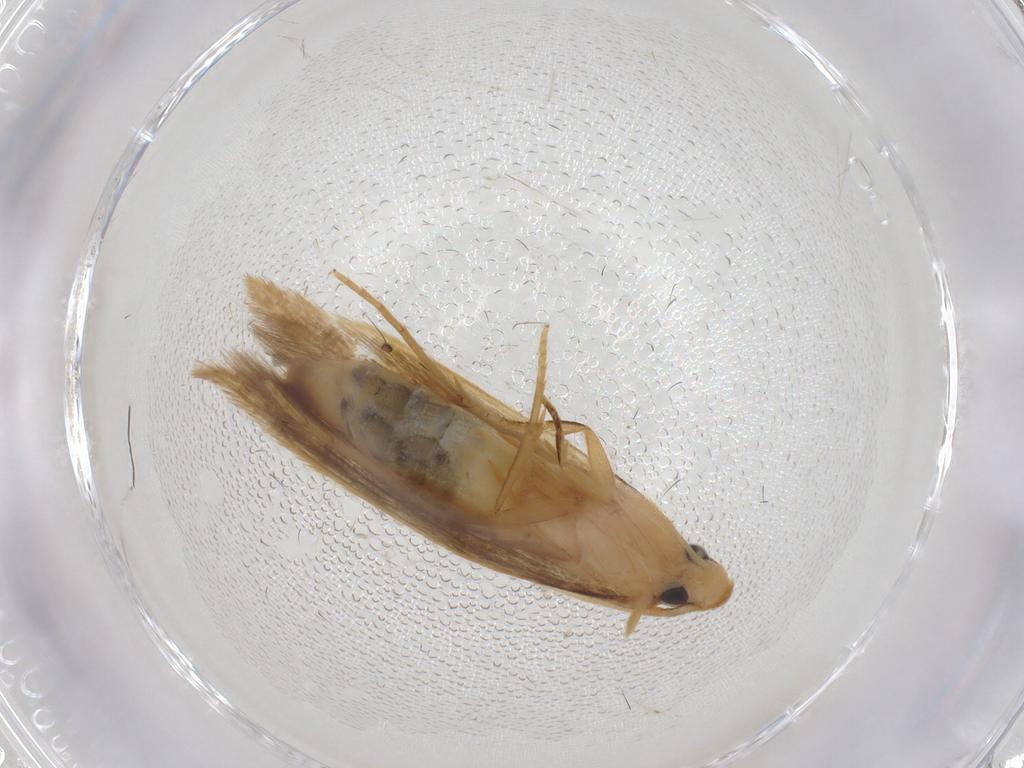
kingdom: Animalia
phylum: Arthropoda
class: Insecta
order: Lepidoptera
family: Tineidae
